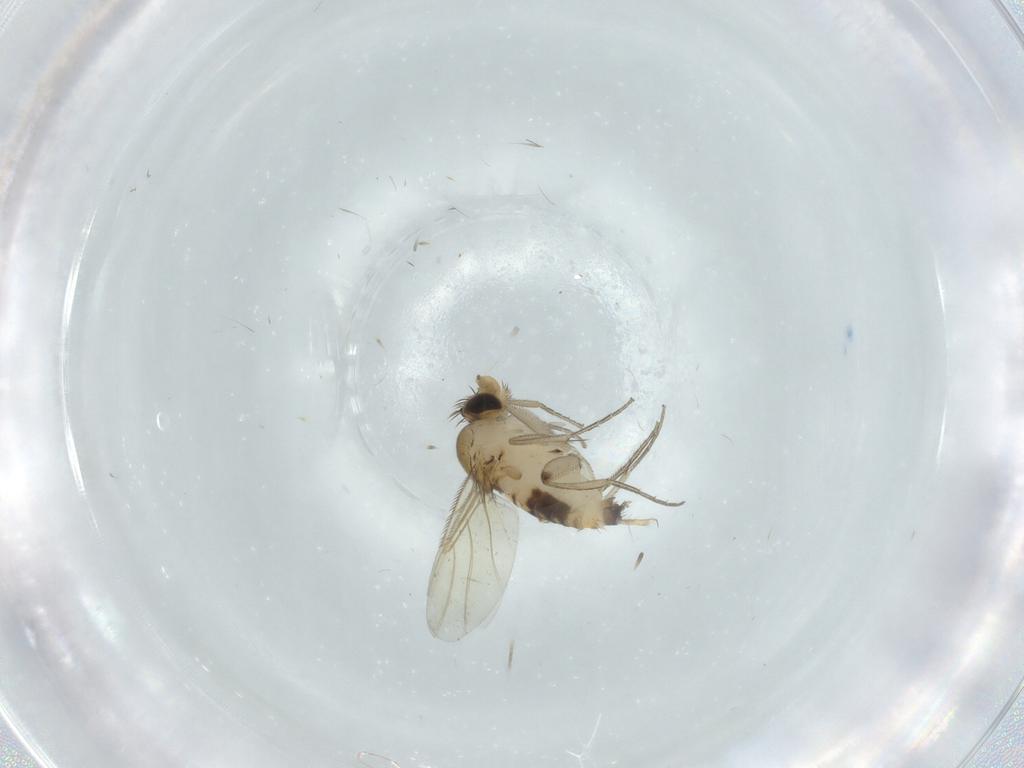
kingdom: Animalia
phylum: Arthropoda
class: Insecta
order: Diptera
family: Phoridae
